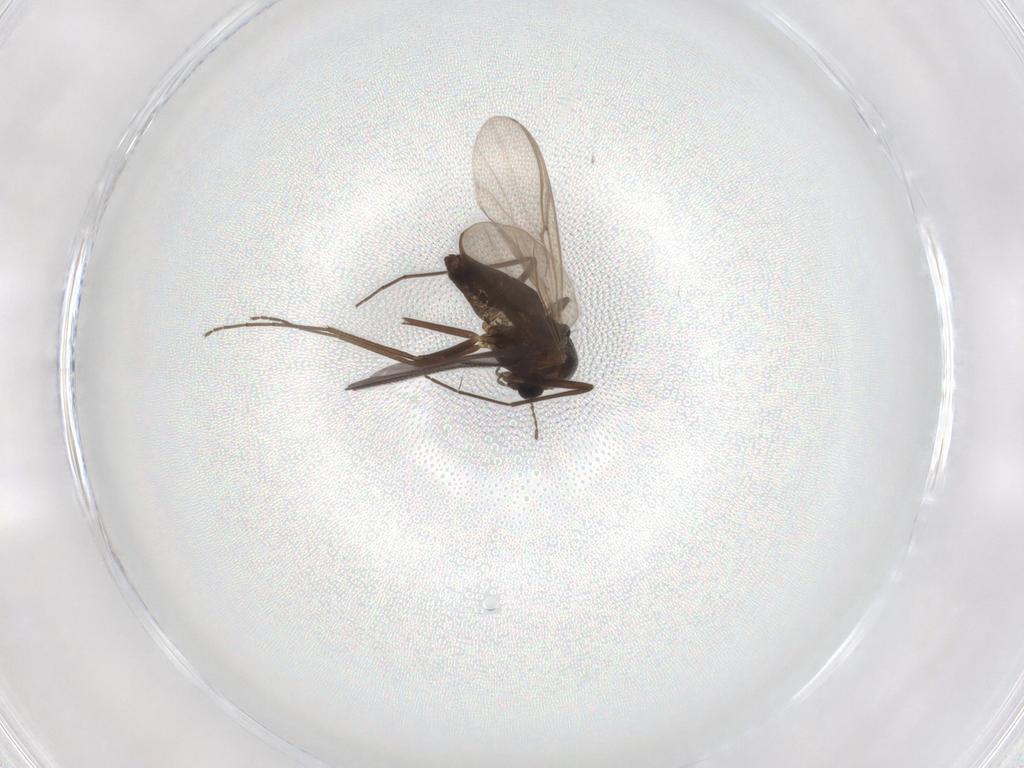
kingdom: Animalia
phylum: Arthropoda
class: Insecta
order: Diptera
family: Chironomidae
